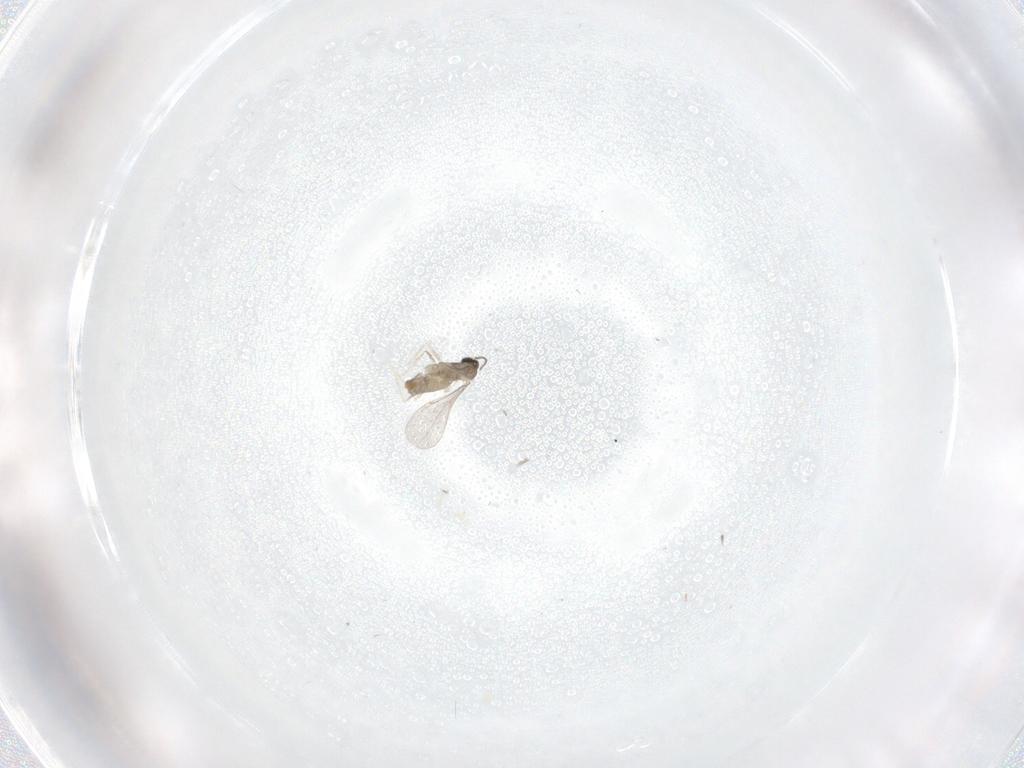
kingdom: Animalia
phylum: Arthropoda
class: Insecta
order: Diptera
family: Cecidomyiidae
